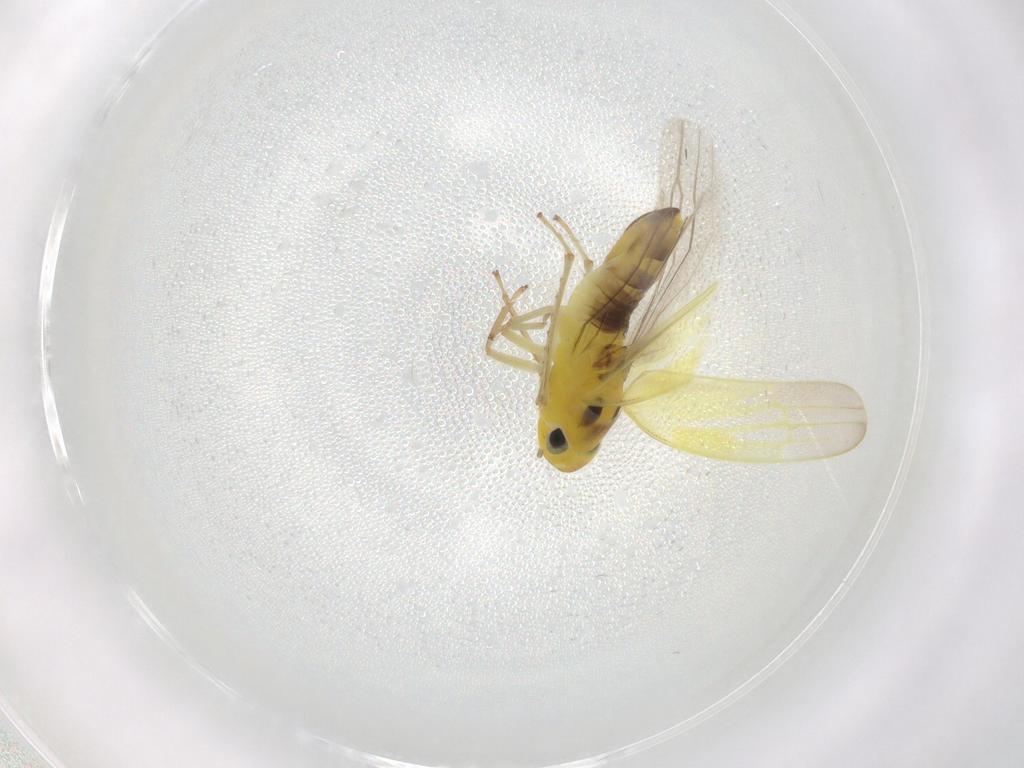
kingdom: Animalia
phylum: Arthropoda
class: Insecta
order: Hemiptera
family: Cicadellidae
